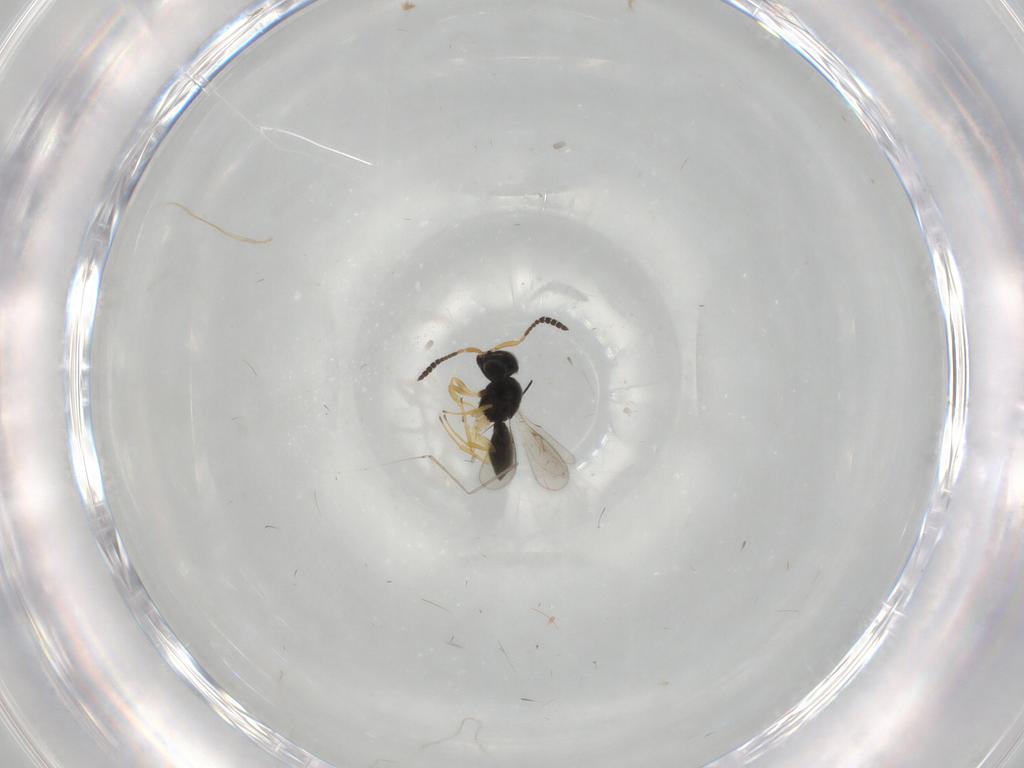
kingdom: Animalia
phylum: Arthropoda
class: Insecta
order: Hymenoptera
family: Scelionidae
